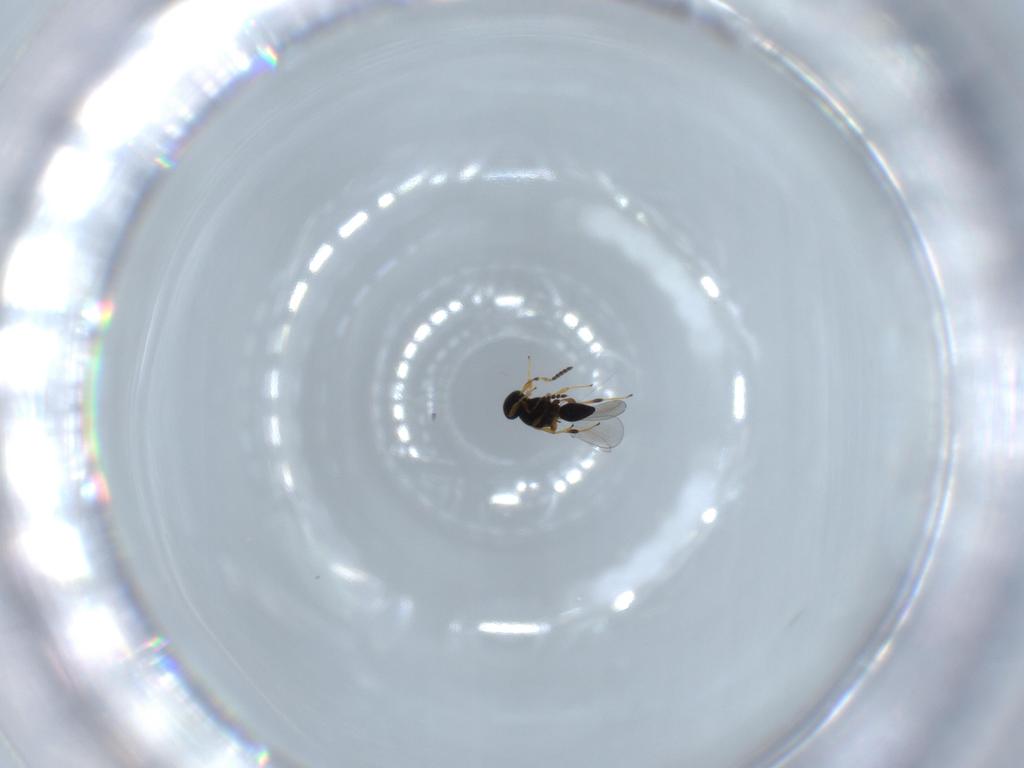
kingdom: Animalia
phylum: Arthropoda
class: Insecta
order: Hymenoptera
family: Platygastridae
